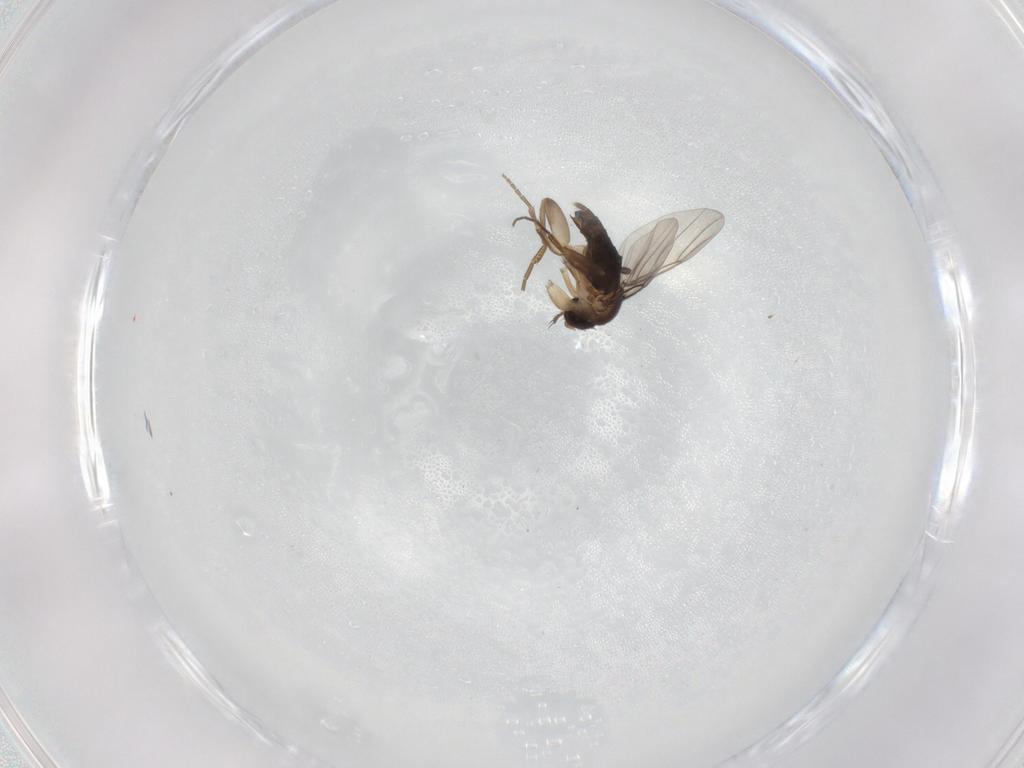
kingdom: Animalia
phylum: Arthropoda
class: Insecta
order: Diptera
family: Phoridae
